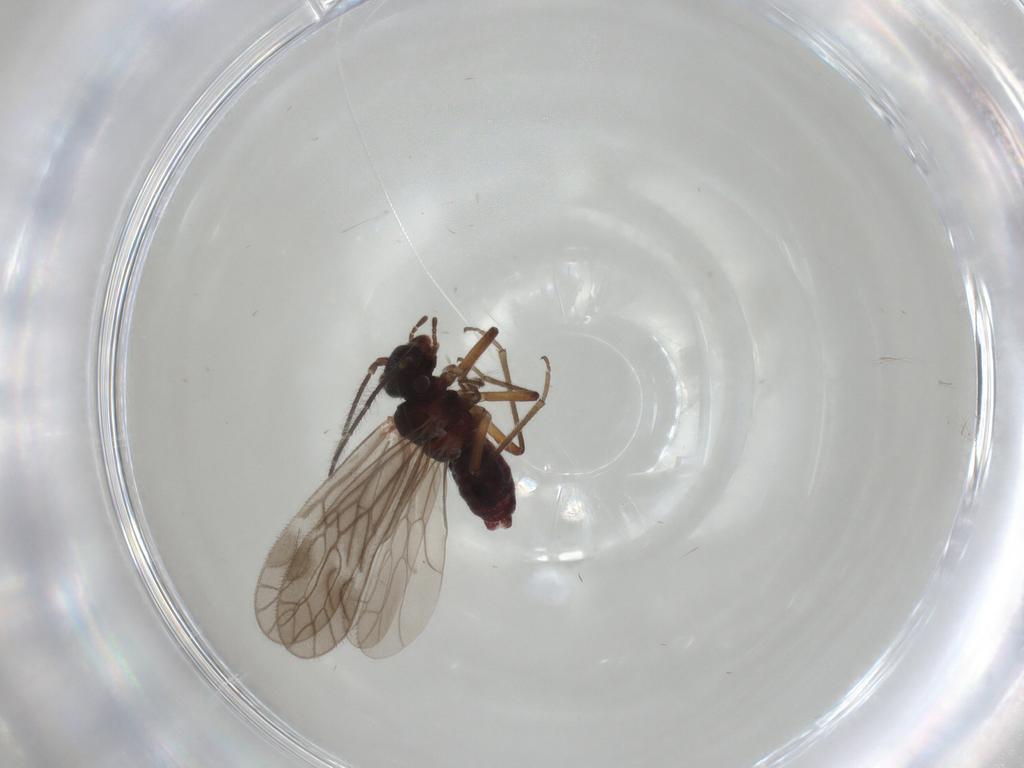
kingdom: Animalia
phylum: Arthropoda
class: Insecta
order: Psocodea
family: Trichopsocidae
